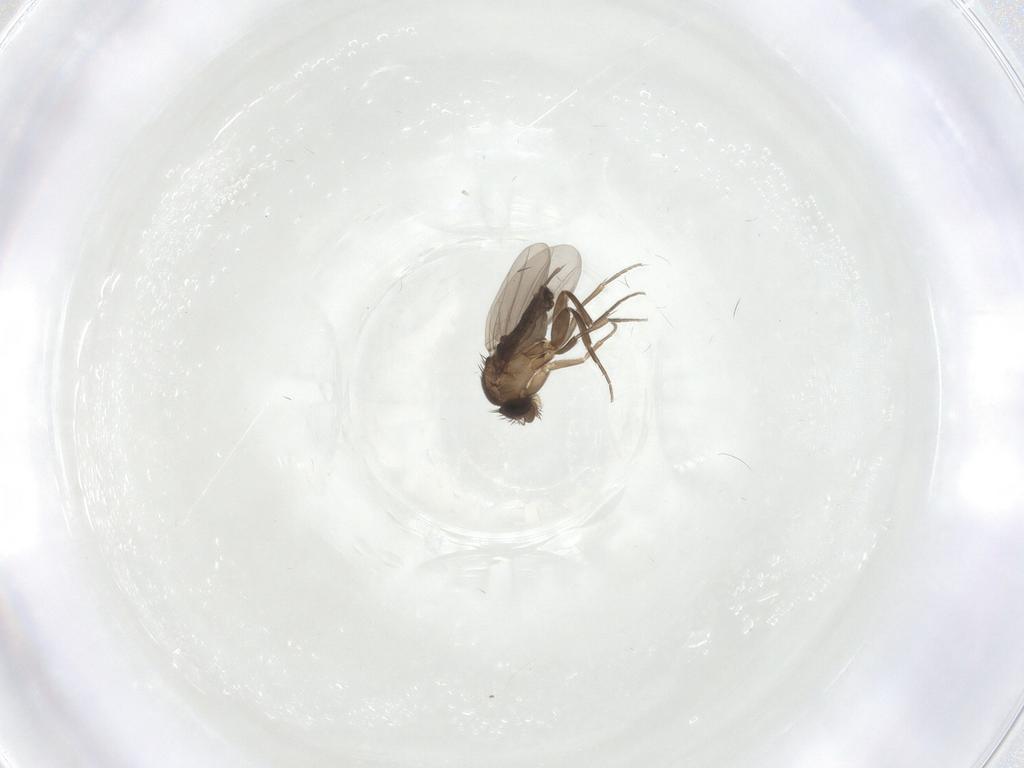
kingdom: Animalia
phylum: Arthropoda
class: Insecta
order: Diptera
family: Phoridae
